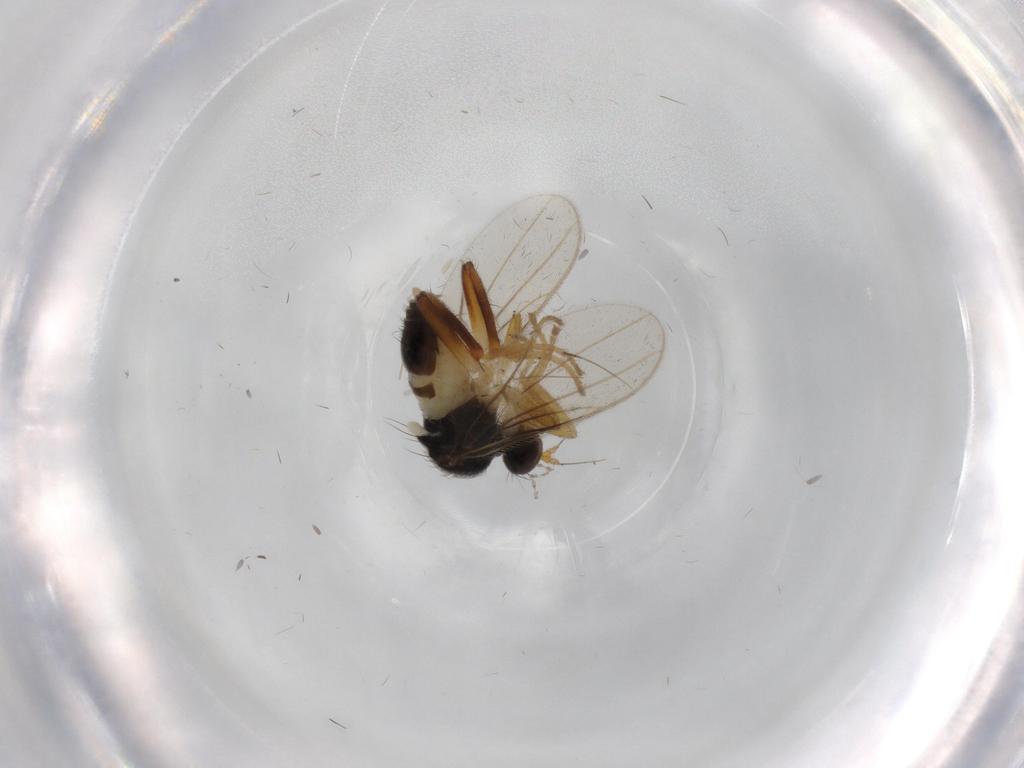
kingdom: Animalia
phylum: Arthropoda
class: Insecta
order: Diptera
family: Hybotidae
